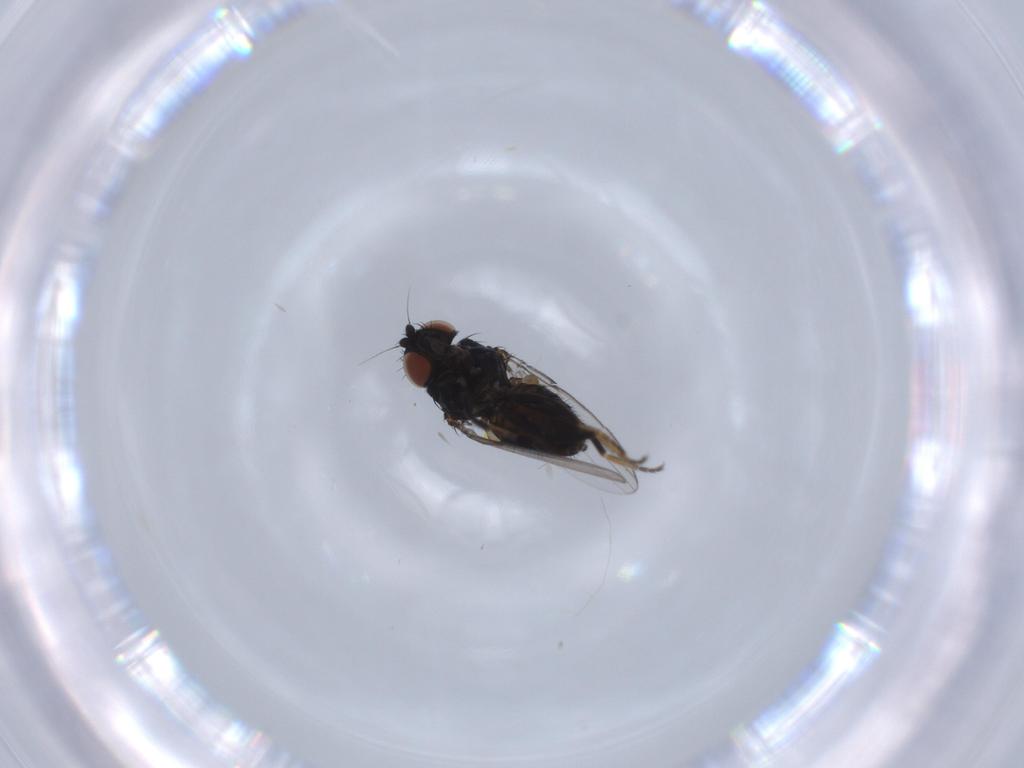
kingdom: Animalia
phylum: Arthropoda
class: Insecta
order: Diptera
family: Milichiidae
